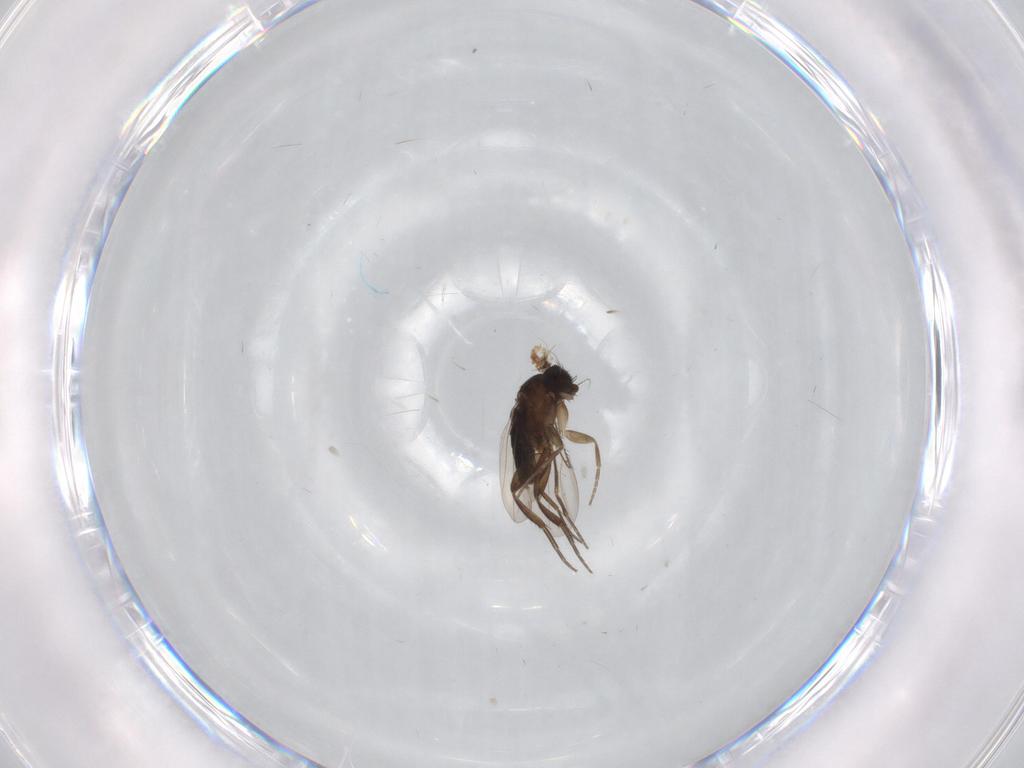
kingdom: Animalia
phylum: Arthropoda
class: Insecta
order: Diptera
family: Phoridae
